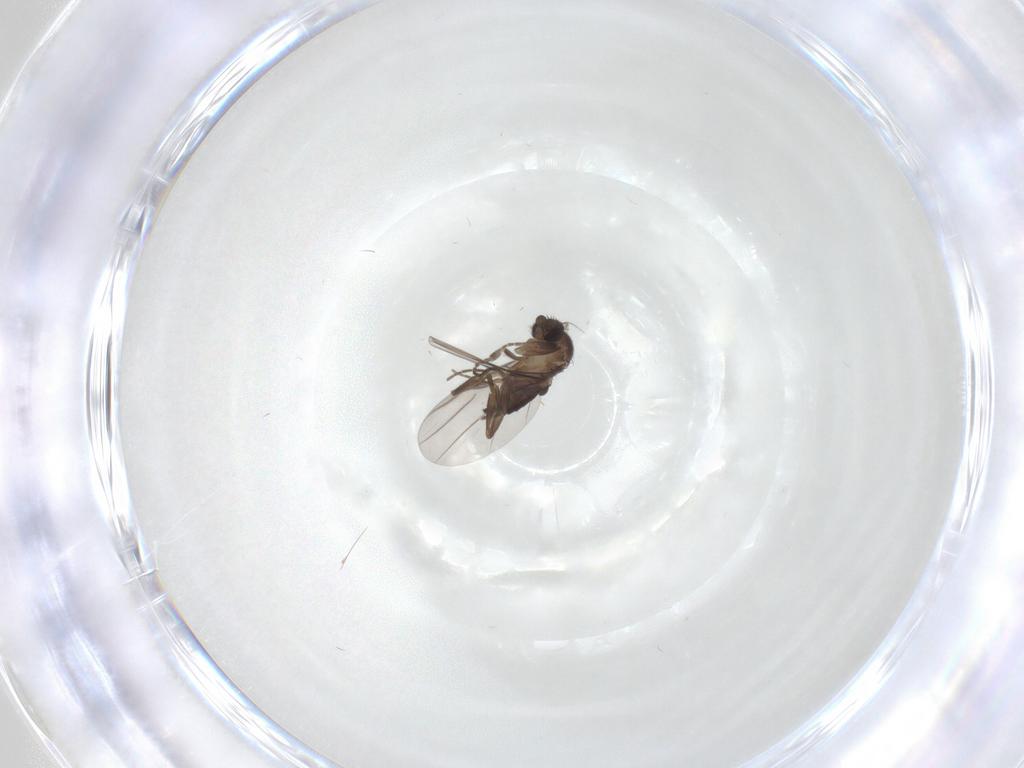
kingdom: Animalia
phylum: Arthropoda
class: Insecta
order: Diptera
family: Phoridae
